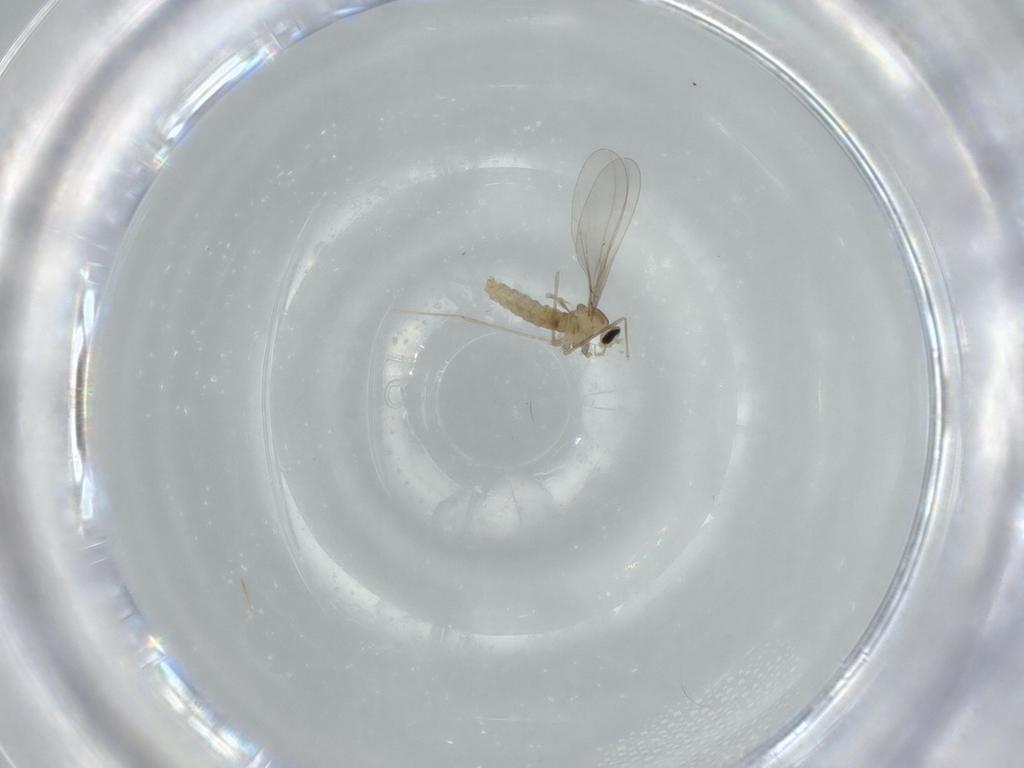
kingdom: Animalia
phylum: Arthropoda
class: Insecta
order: Diptera
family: Cecidomyiidae
